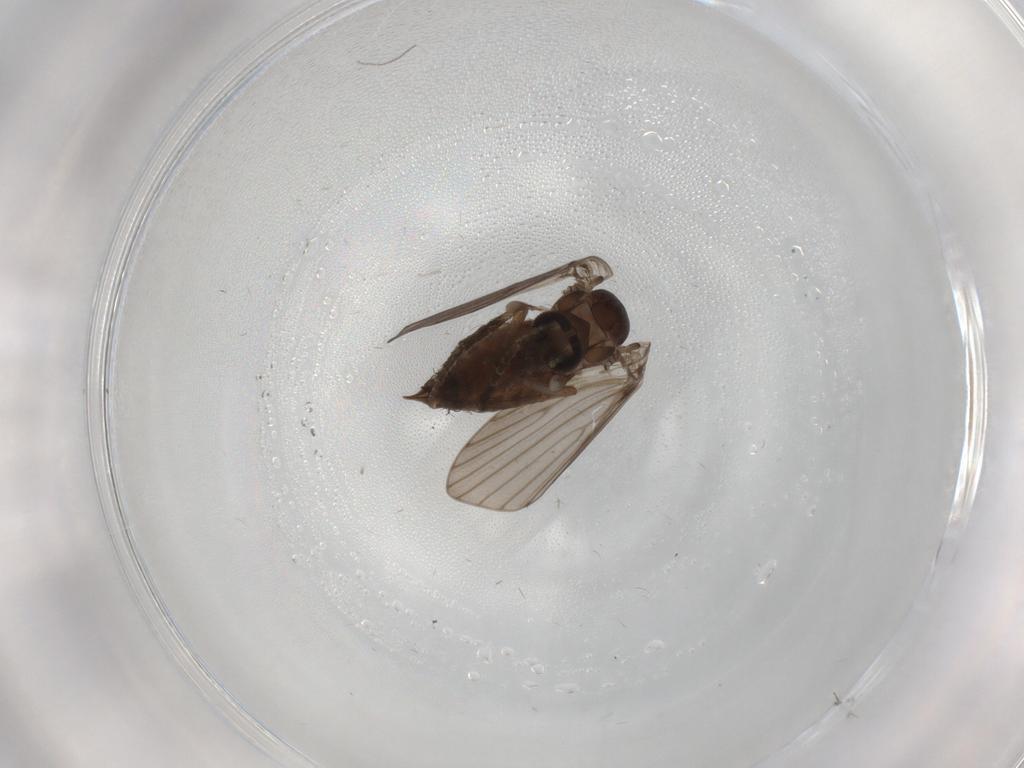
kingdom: Animalia
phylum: Arthropoda
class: Insecta
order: Diptera
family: Psychodidae
